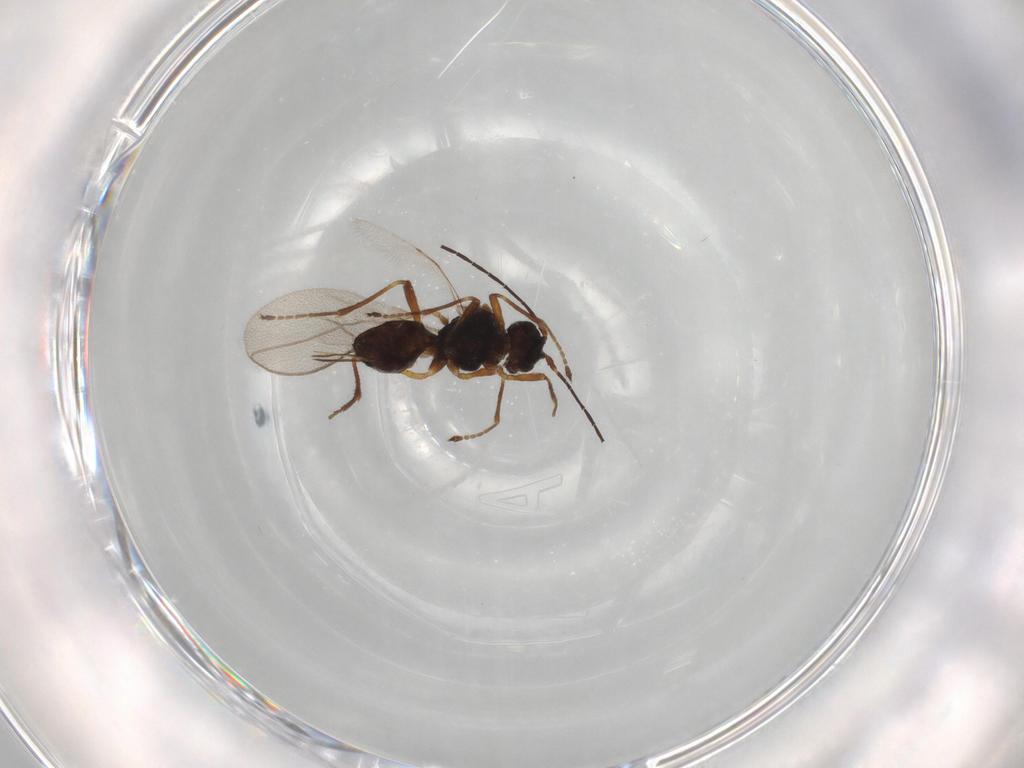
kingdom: Animalia
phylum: Arthropoda
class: Insecta
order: Hymenoptera
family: Braconidae
